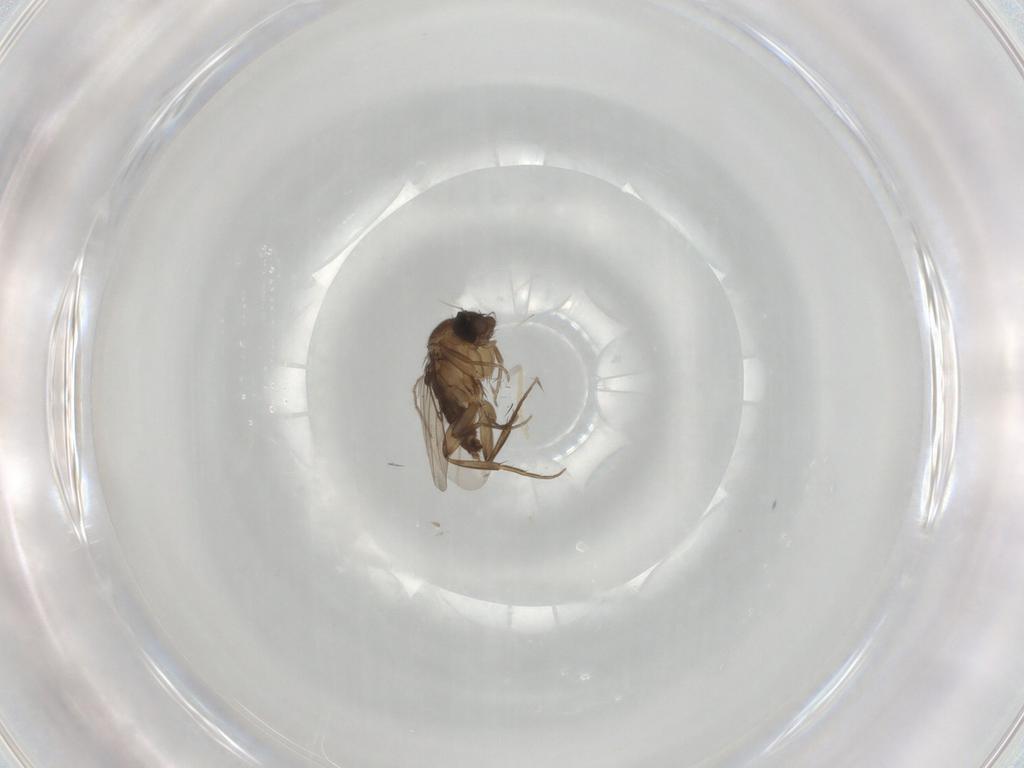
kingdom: Animalia
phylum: Arthropoda
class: Insecta
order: Diptera
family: Phoridae
